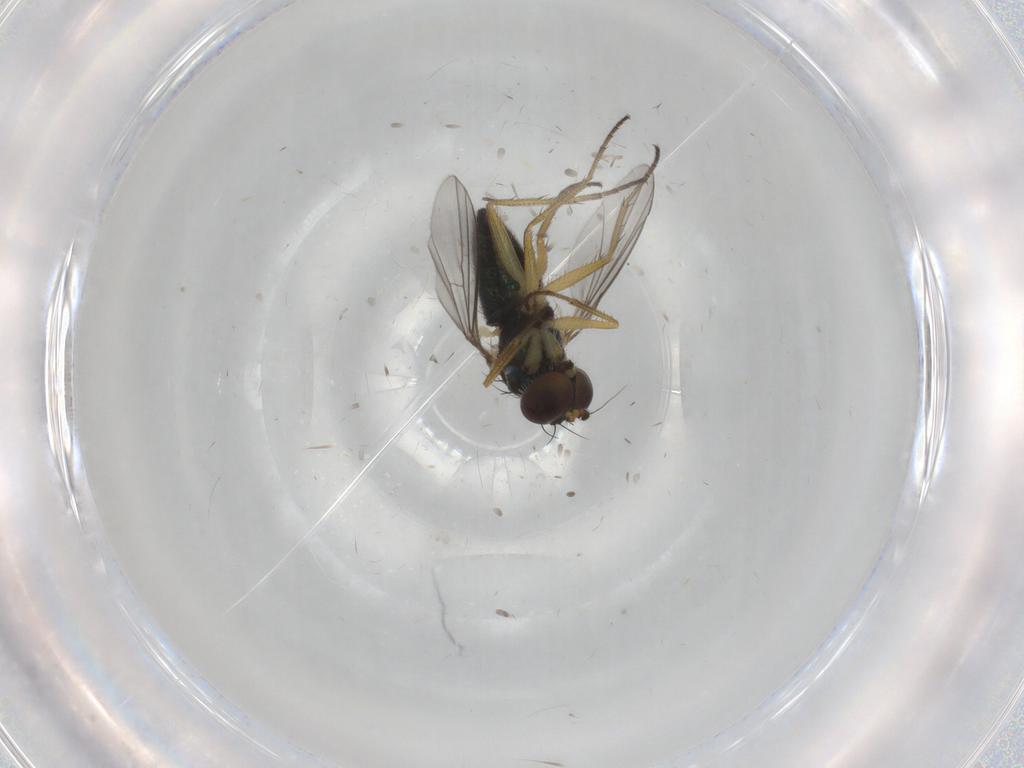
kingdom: Animalia
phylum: Arthropoda
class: Insecta
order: Diptera
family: Dolichopodidae
